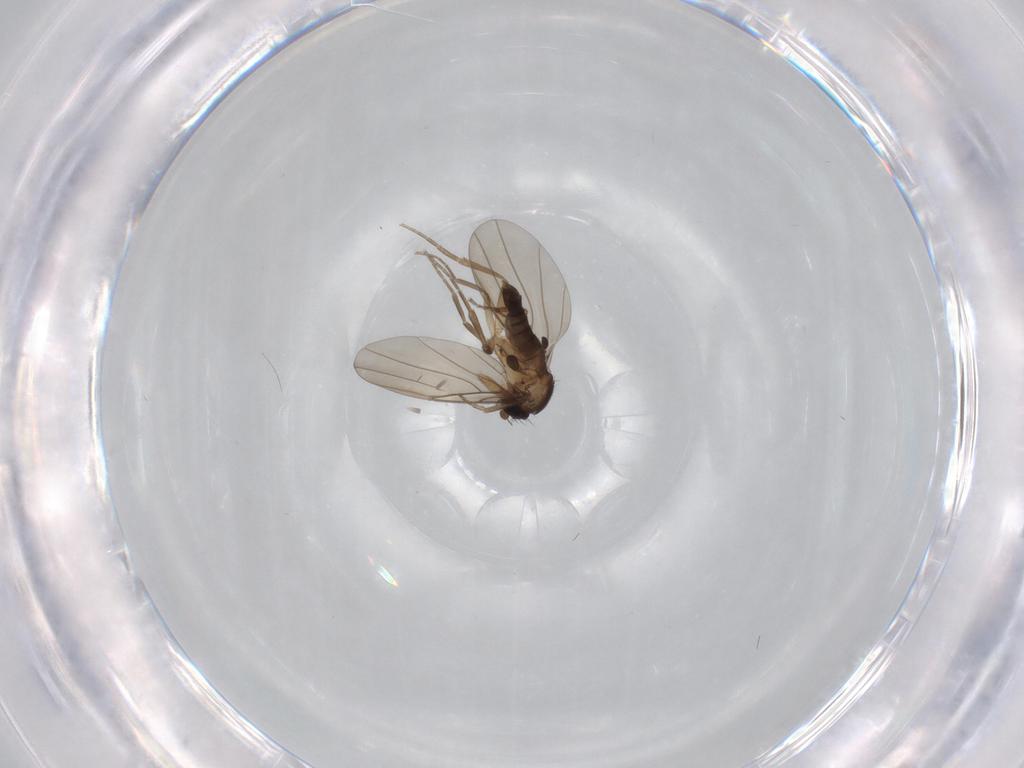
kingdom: Animalia
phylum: Arthropoda
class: Insecta
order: Diptera
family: Phoridae
